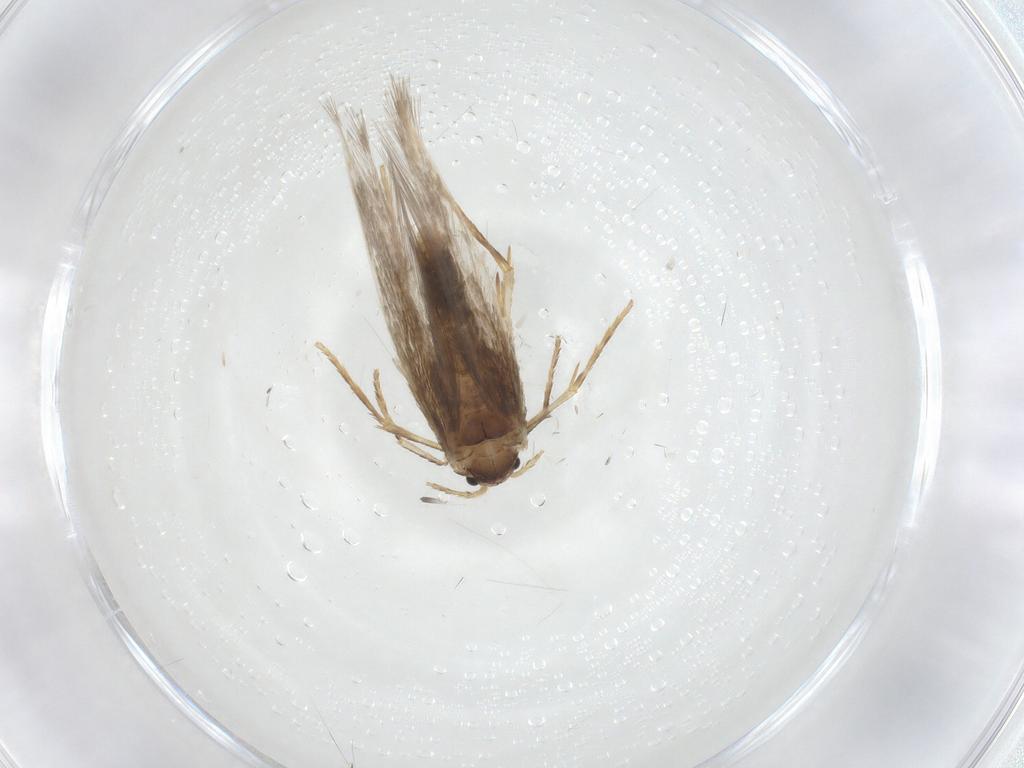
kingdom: Animalia
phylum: Arthropoda
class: Insecta
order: Lepidoptera
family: Nepticulidae
